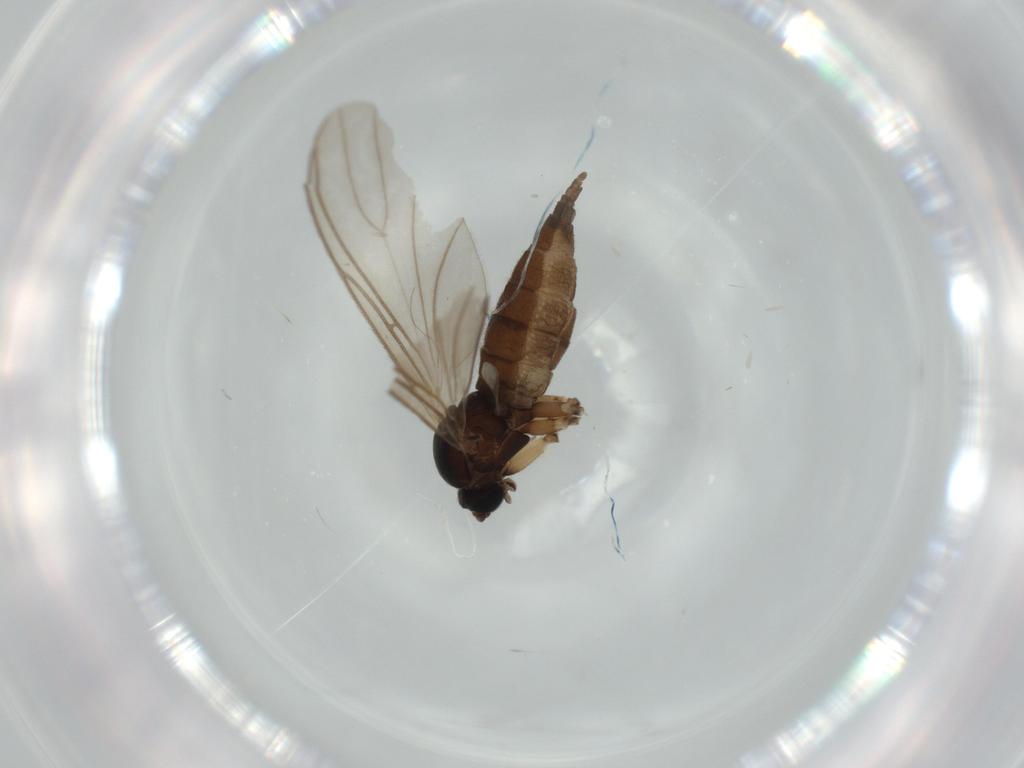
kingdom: Animalia
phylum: Arthropoda
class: Insecta
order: Diptera
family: Sciaridae
